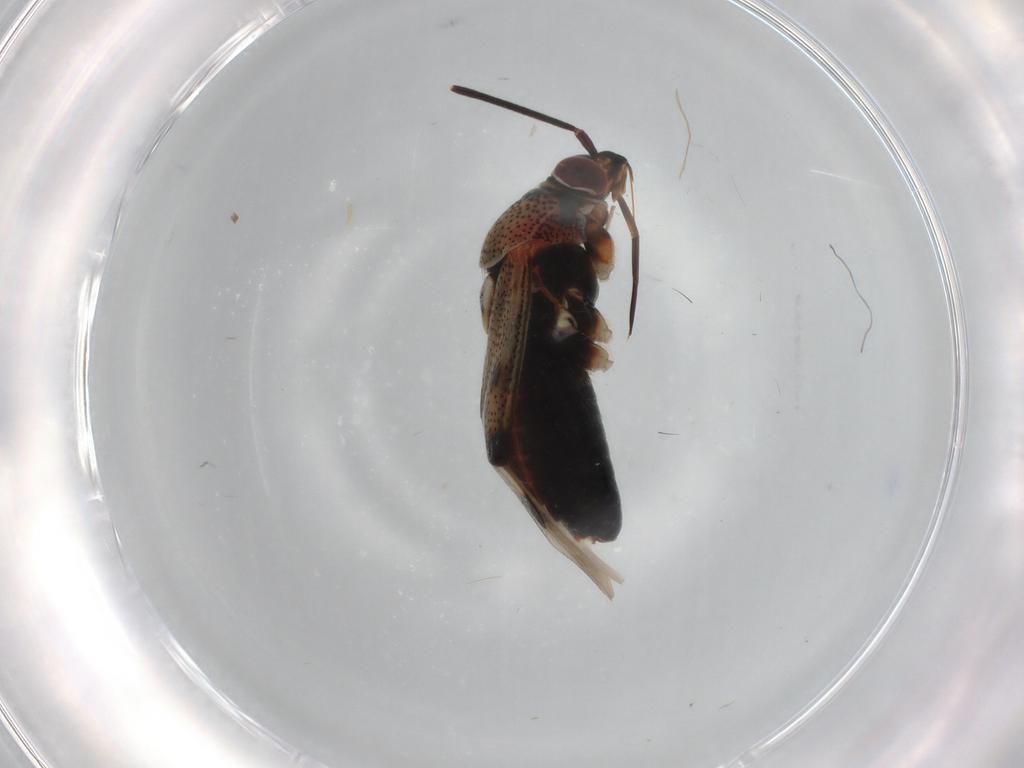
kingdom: Animalia
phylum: Arthropoda
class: Insecta
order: Hemiptera
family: Miridae
